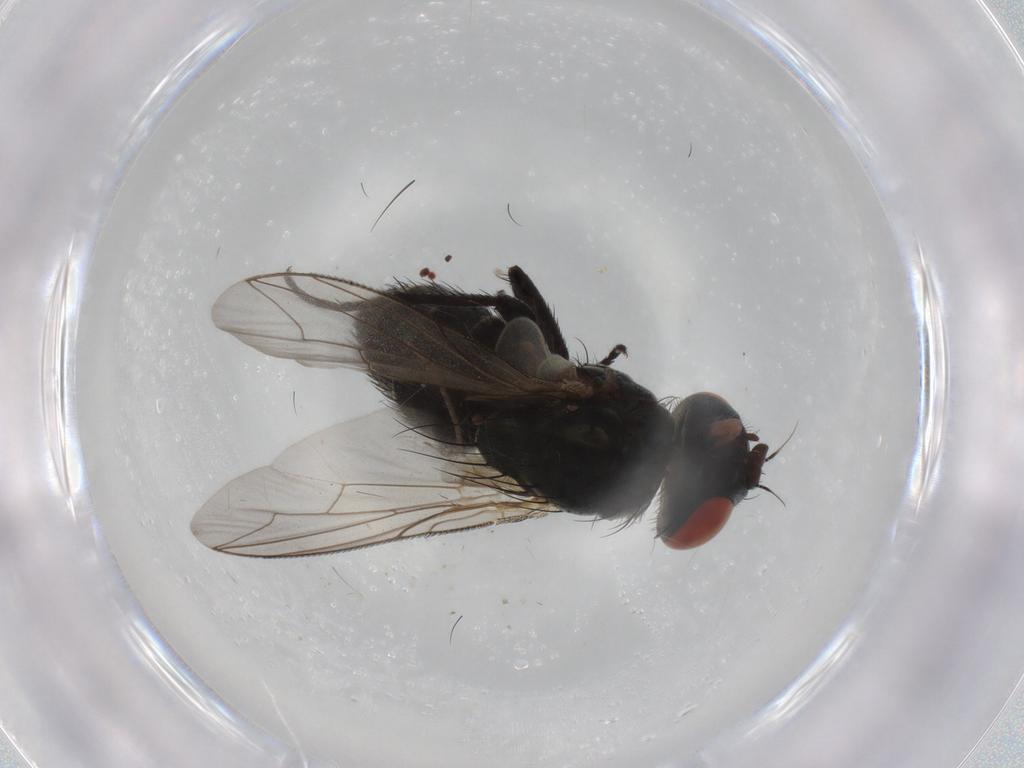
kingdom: Animalia
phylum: Arthropoda
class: Insecta
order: Diptera
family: Sarcophagidae
